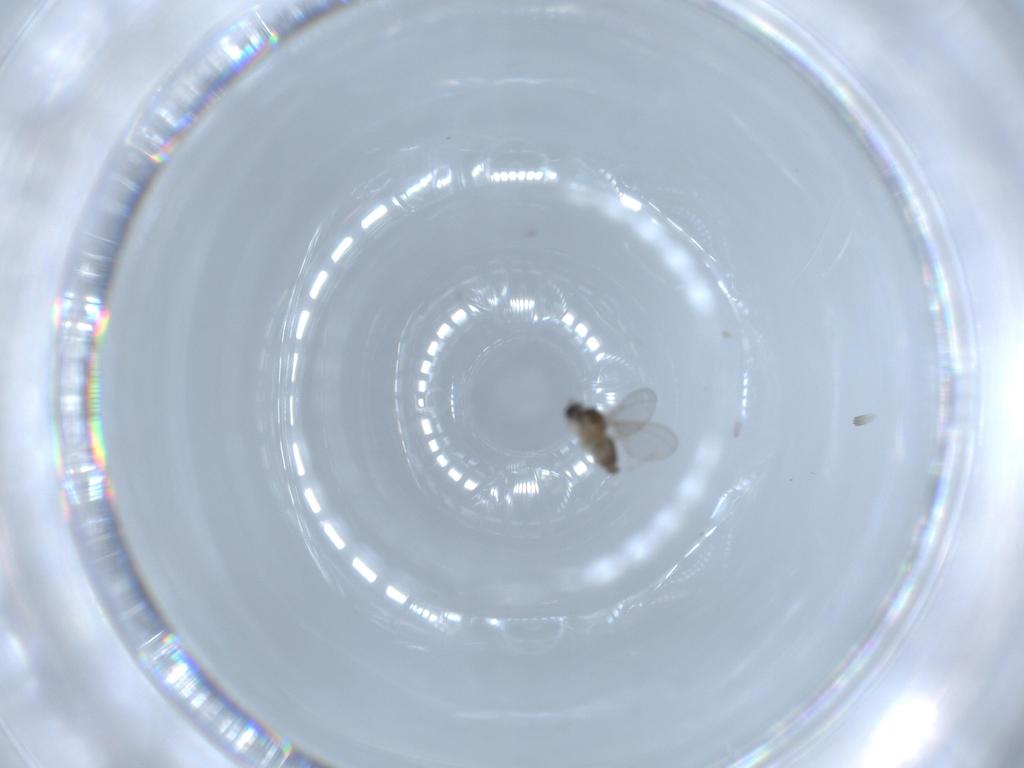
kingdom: Animalia
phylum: Arthropoda
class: Insecta
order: Diptera
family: Cecidomyiidae
